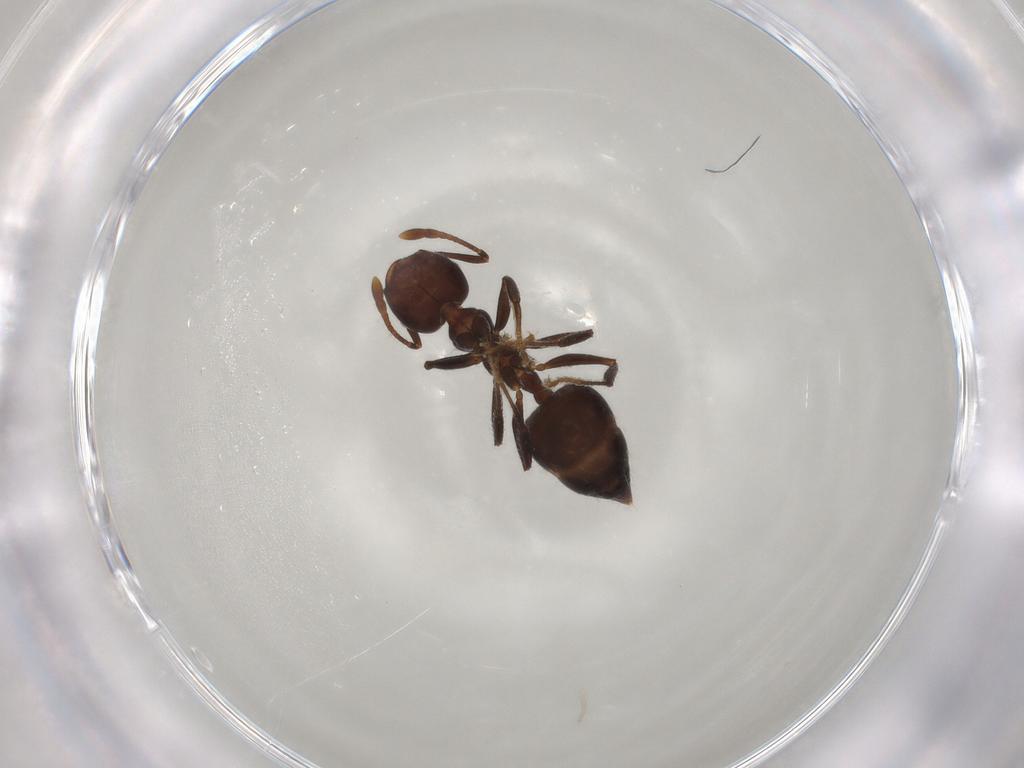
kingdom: Animalia
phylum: Arthropoda
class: Insecta
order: Hymenoptera
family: Formicidae
